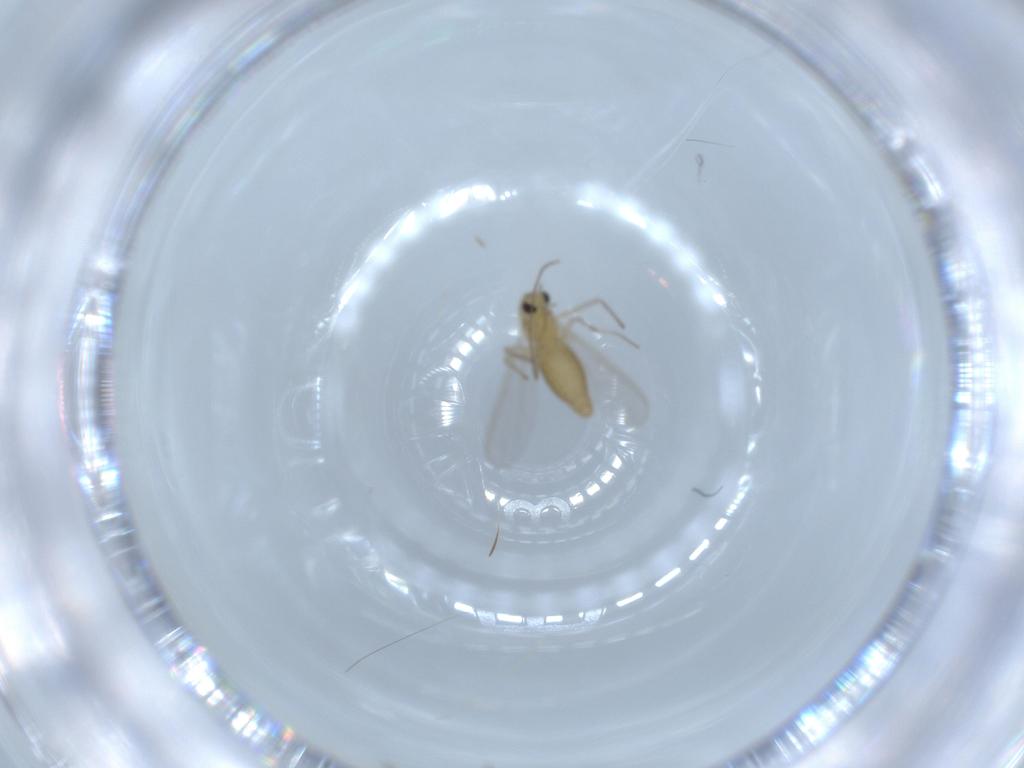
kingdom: Animalia
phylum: Arthropoda
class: Insecta
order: Diptera
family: Chironomidae
